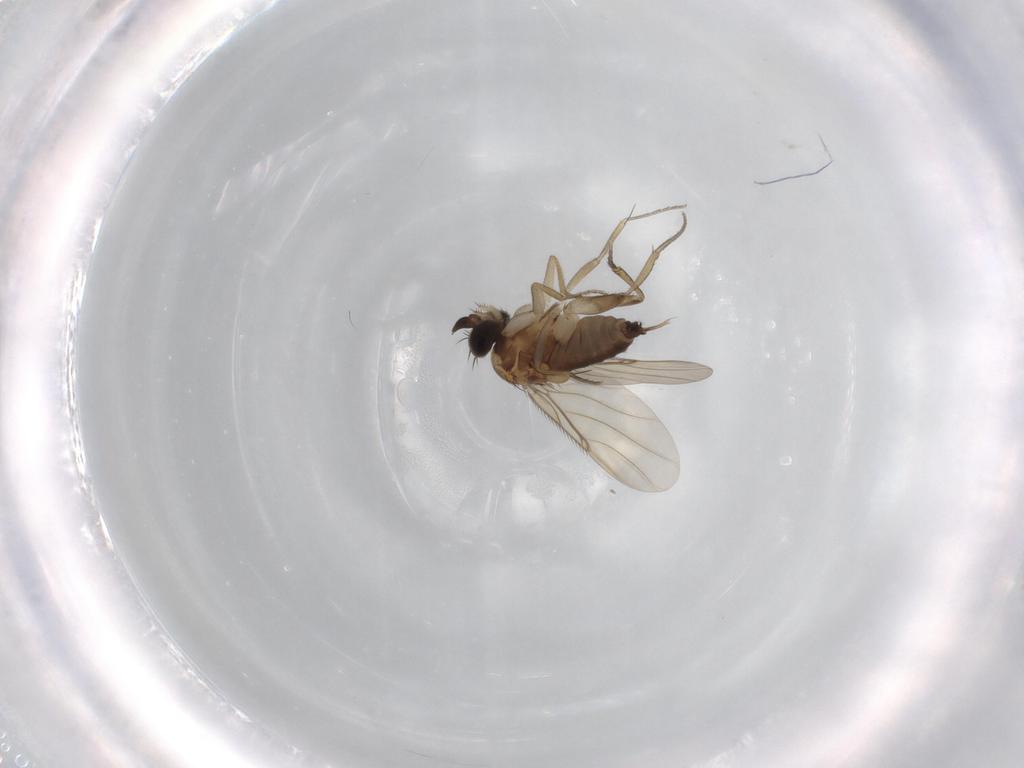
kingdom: Animalia
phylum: Arthropoda
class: Insecta
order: Diptera
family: Phoridae
